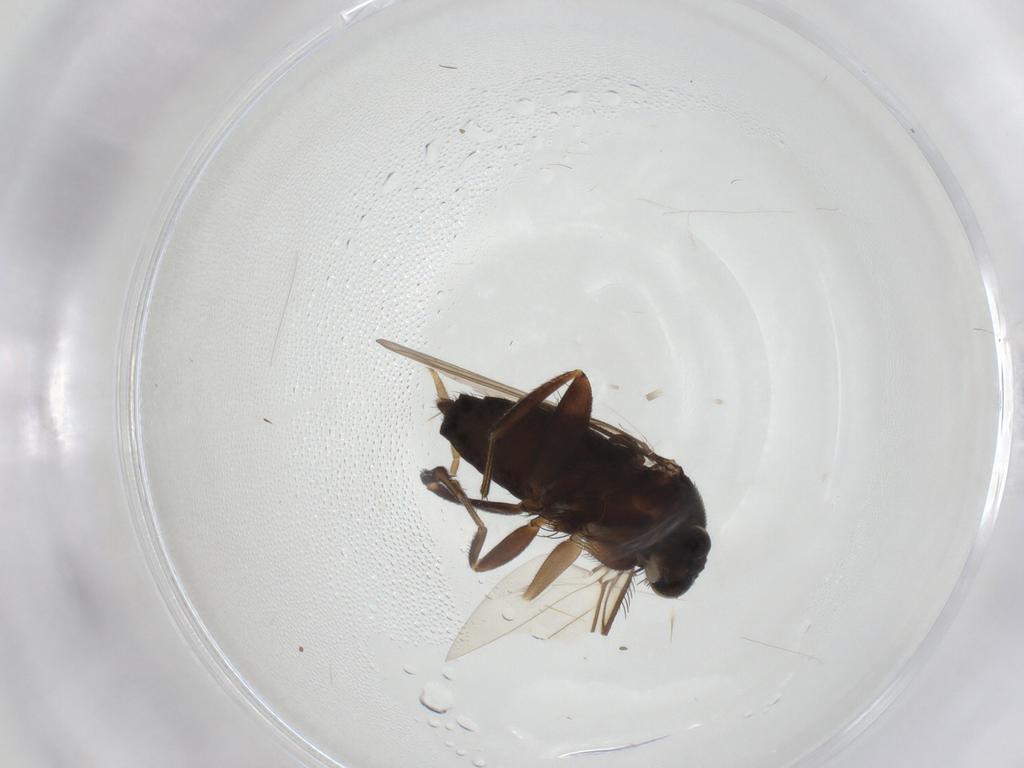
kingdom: Animalia
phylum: Arthropoda
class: Insecta
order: Diptera
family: Phoridae
